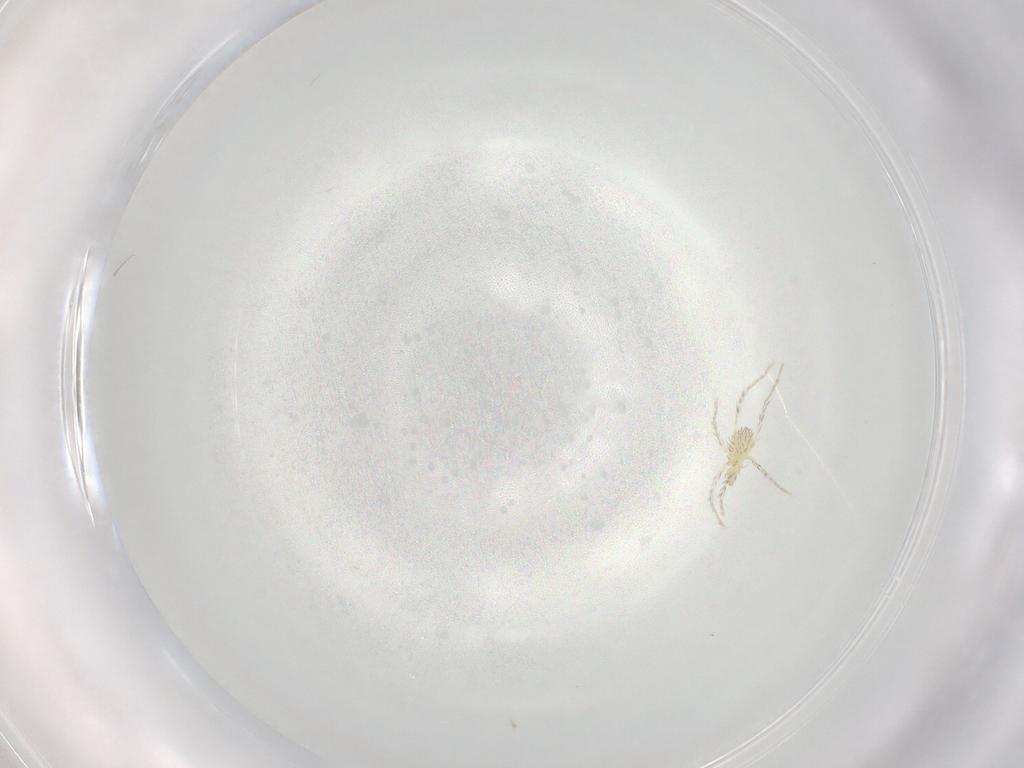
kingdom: Animalia
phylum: Arthropoda
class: Arachnida
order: Trombidiformes
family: Erythraeidae
